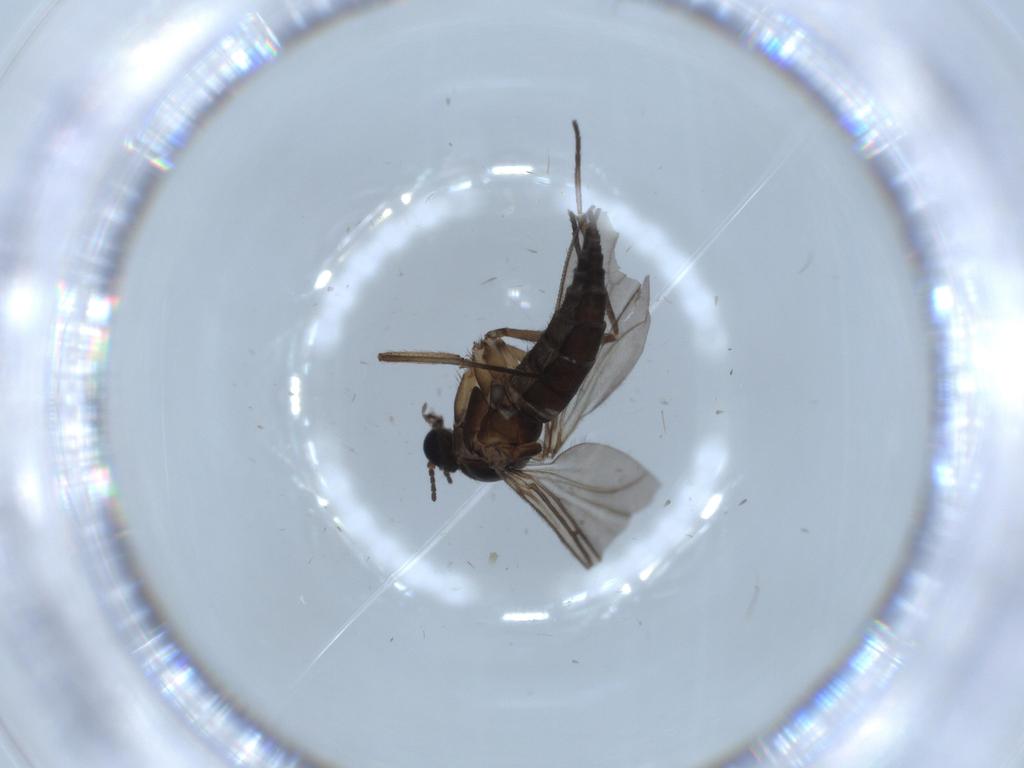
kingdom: Animalia
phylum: Arthropoda
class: Insecta
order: Diptera
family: Sciaridae
